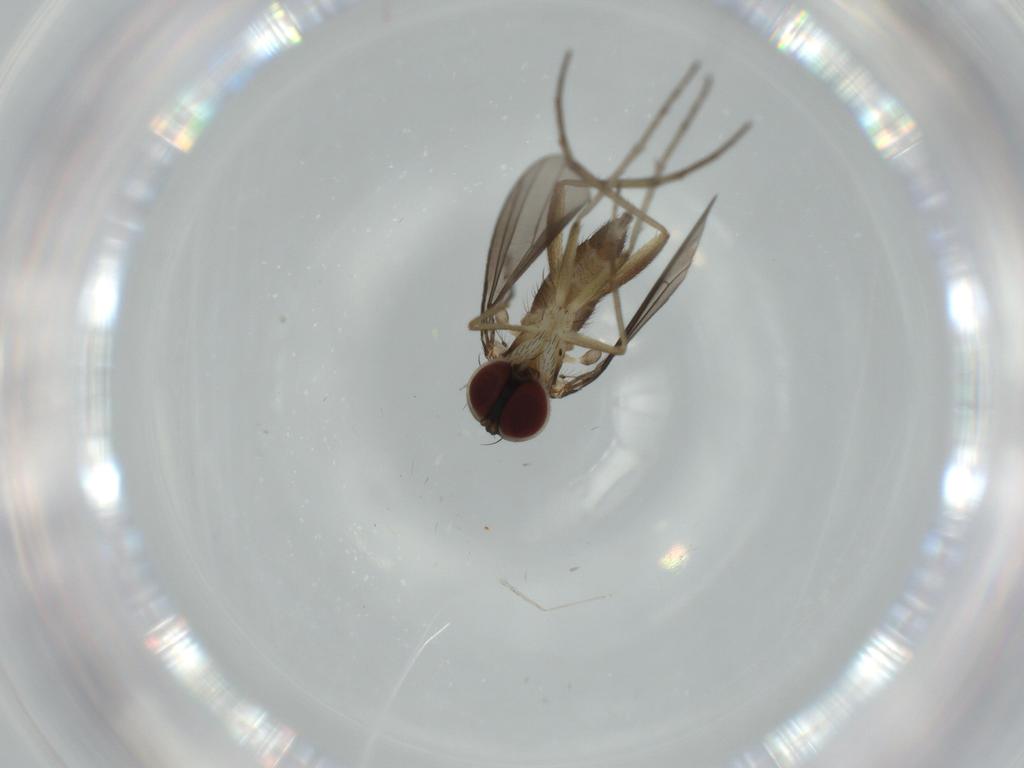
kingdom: Animalia
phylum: Arthropoda
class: Insecta
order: Diptera
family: Dolichopodidae
